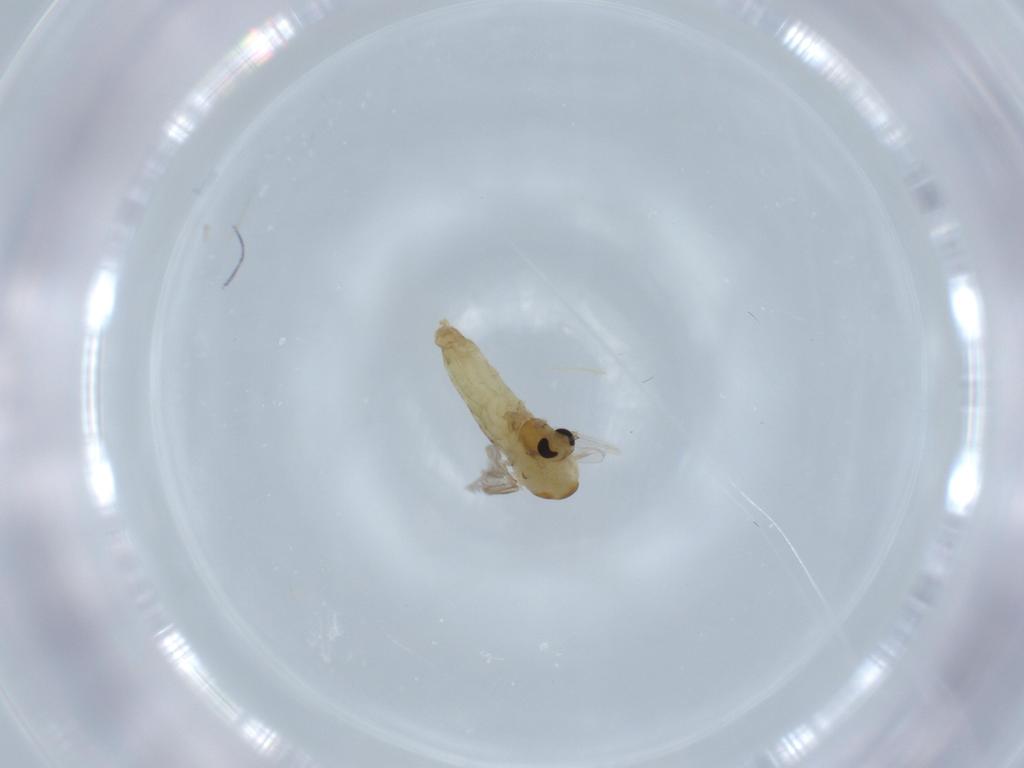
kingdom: Animalia
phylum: Arthropoda
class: Insecta
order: Diptera
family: Chironomidae
